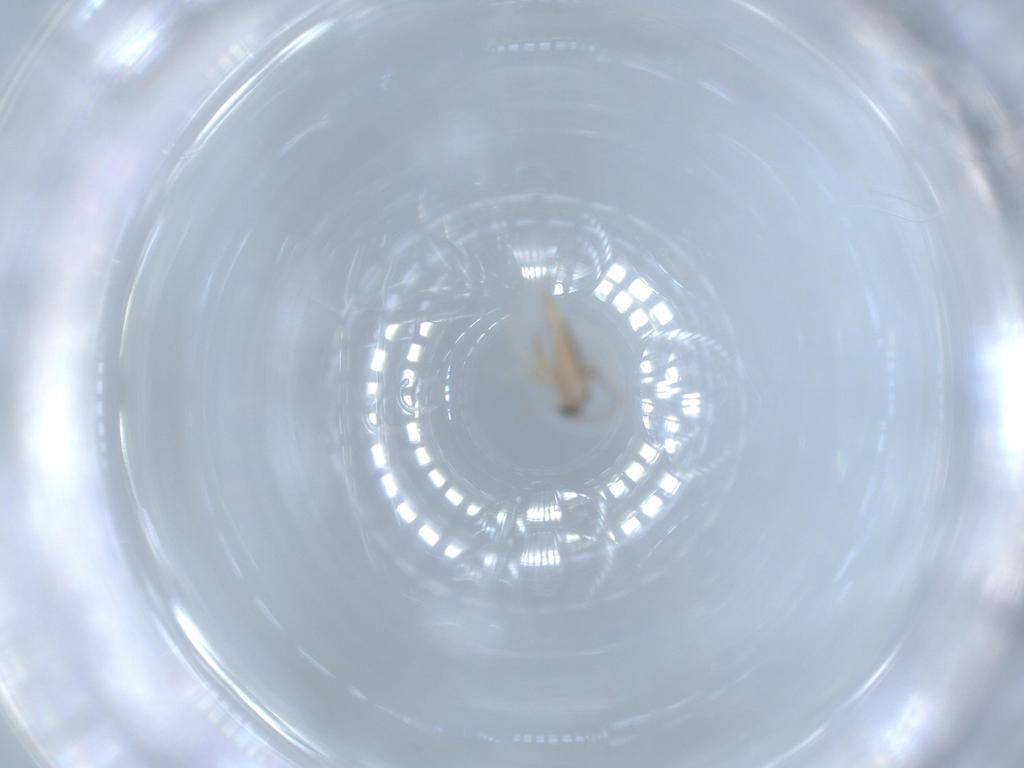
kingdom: Animalia
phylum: Arthropoda
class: Insecta
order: Diptera
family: Cecidomyiidae
